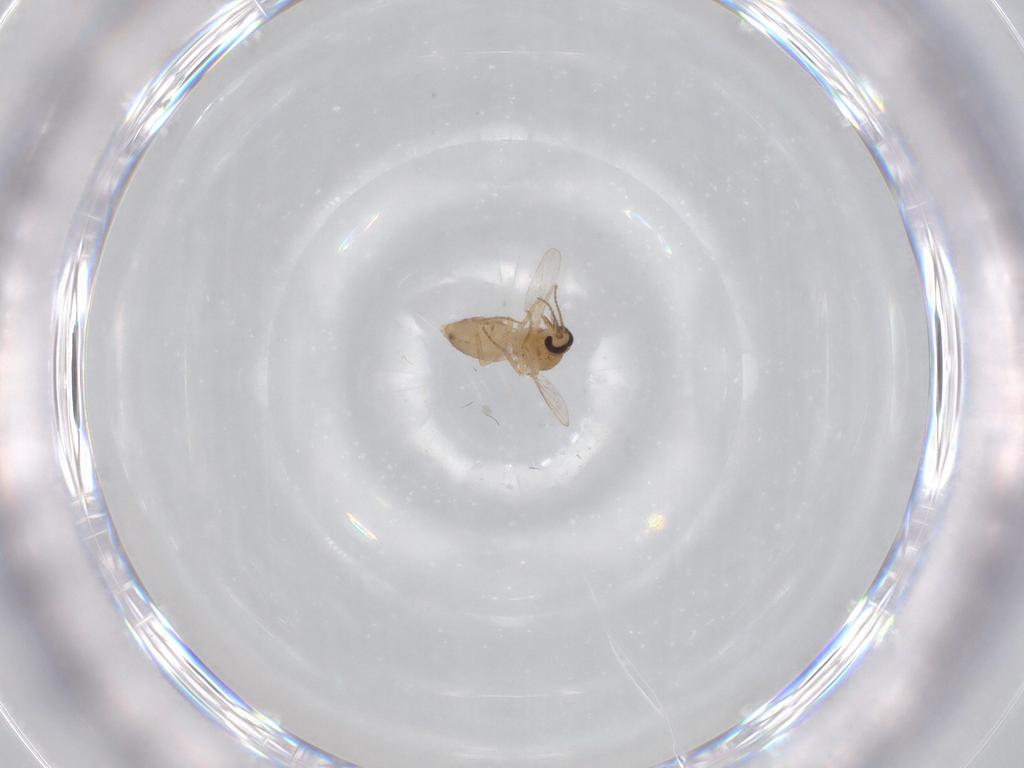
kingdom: Animalia
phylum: Arthropoda
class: Insecta
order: Diptera
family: Ceratopogonidae
